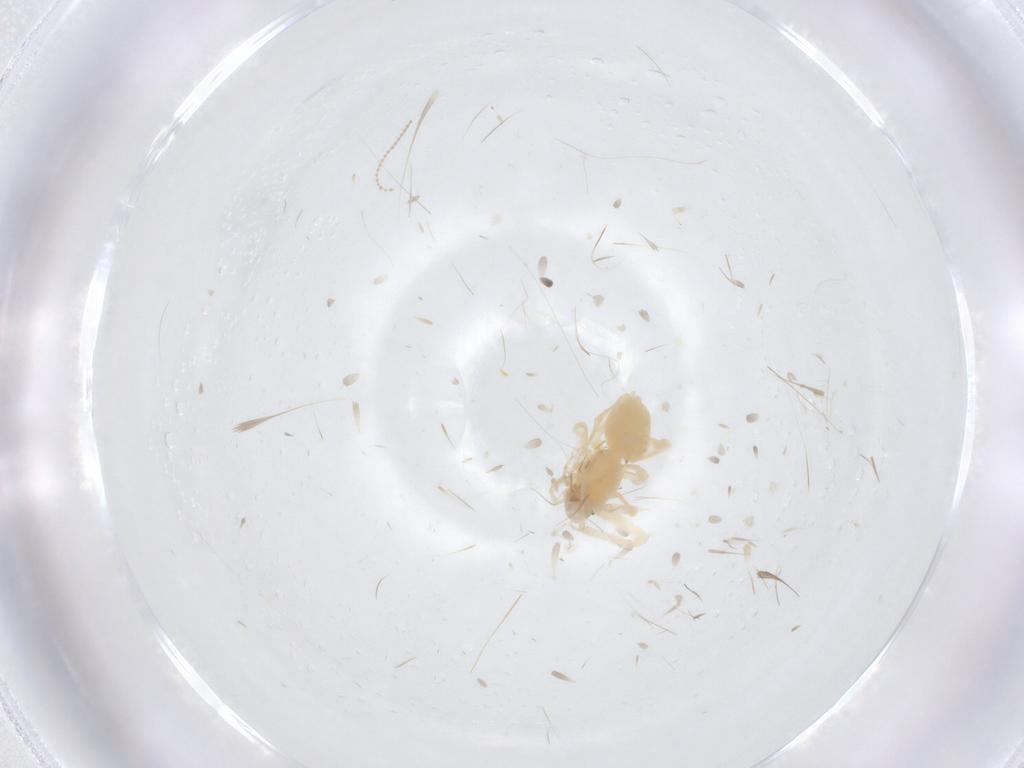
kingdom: Animalia
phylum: Arthropoda
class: Arachnida
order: Araneae
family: Anyphaenidae
